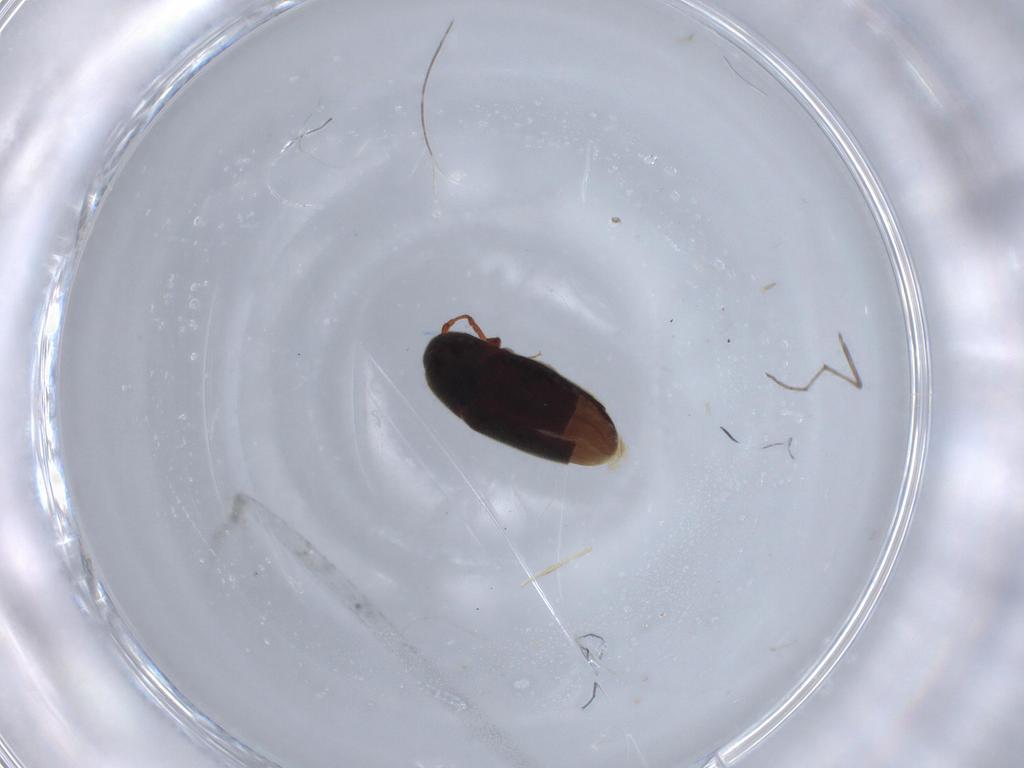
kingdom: Animalia
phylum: Arthropoda
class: Insecta
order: Coleoptera
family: Throscidae
